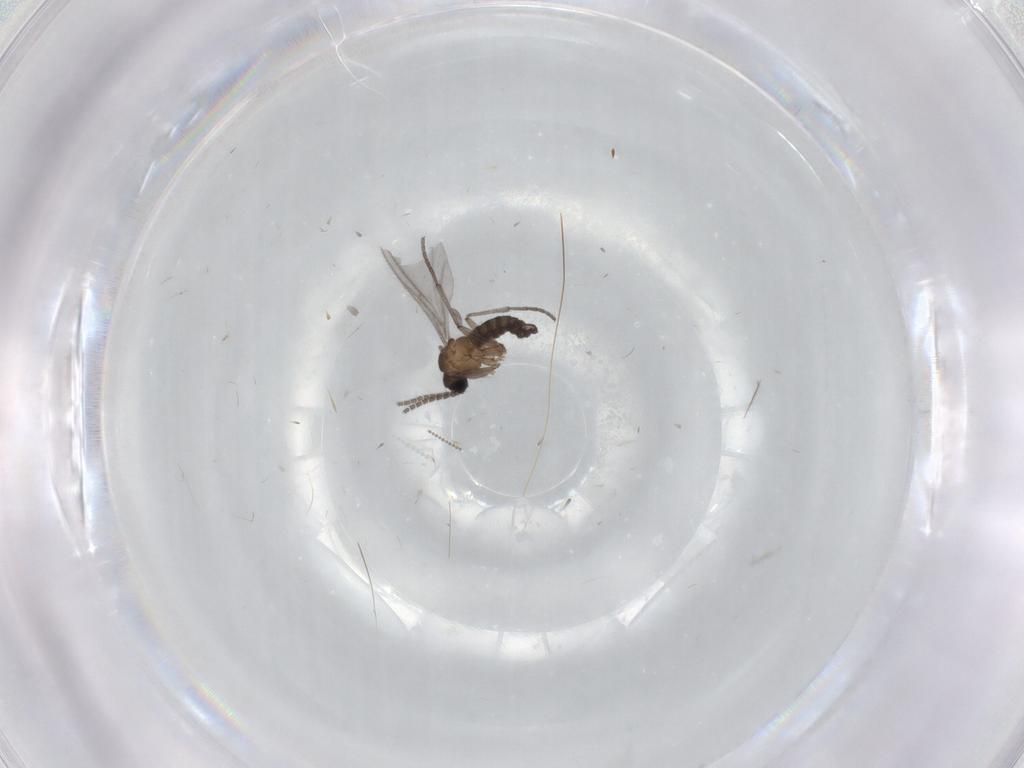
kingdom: Animalia
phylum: Arthropoda
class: Insecta
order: Diptera
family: Sciaridae
